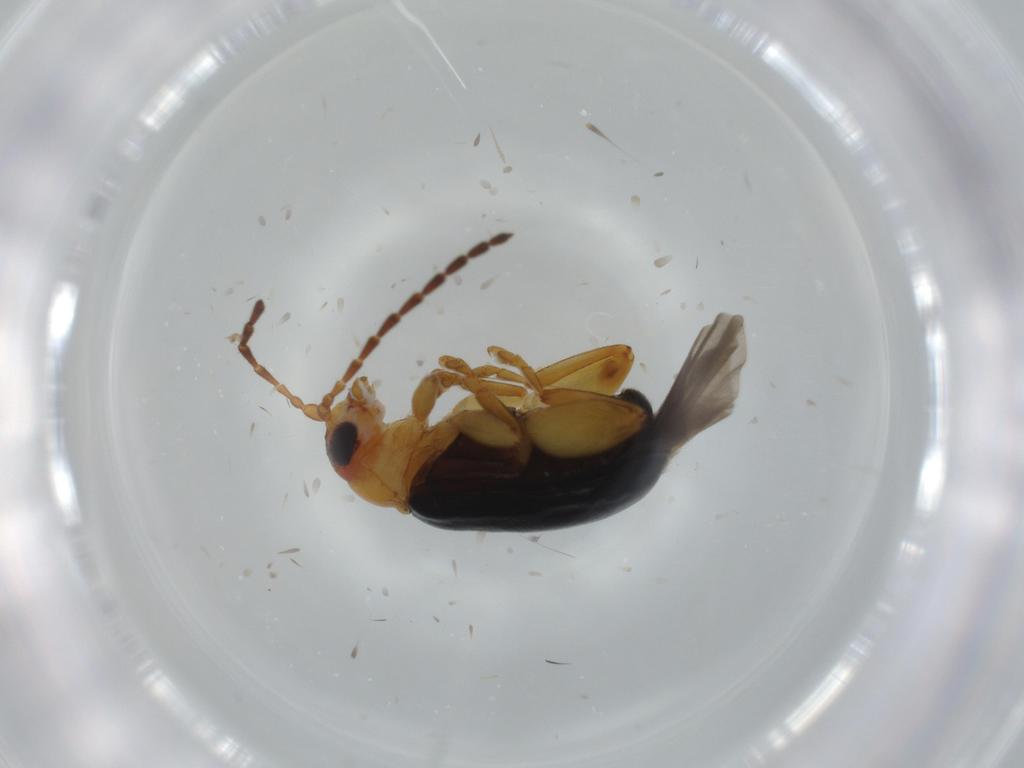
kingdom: Animalia
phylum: Arthropoda
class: Insecta
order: Coleoptera
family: Chrysomelidae
